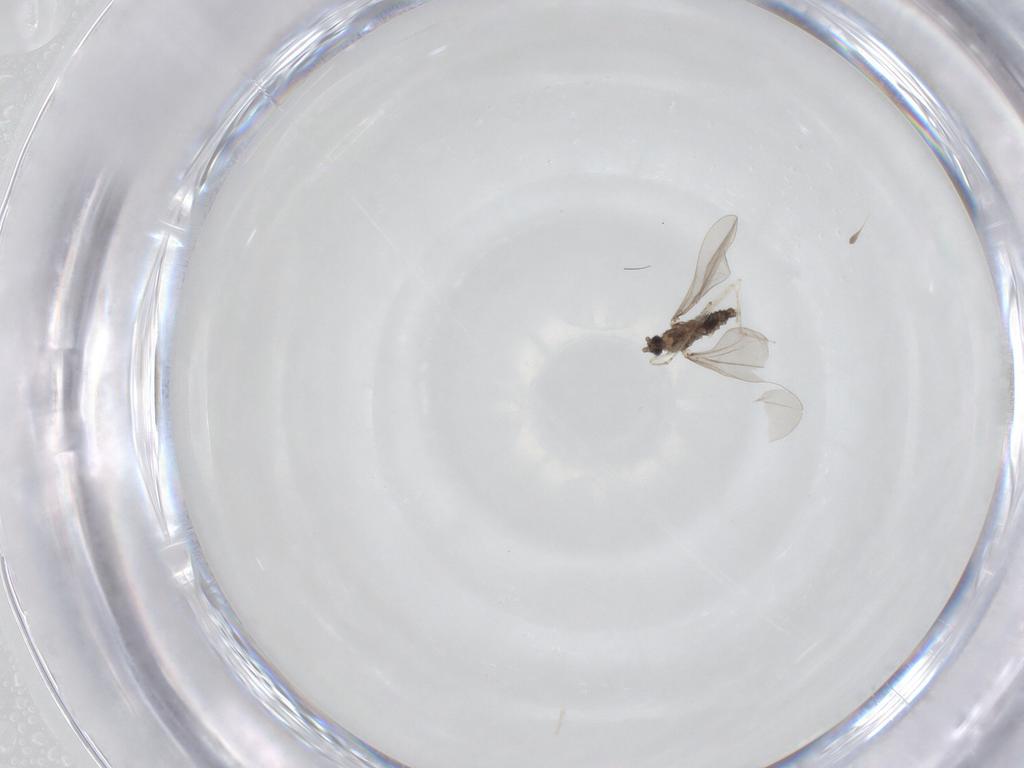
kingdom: Animalia
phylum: Arthropoda
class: Insecta
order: Diptera
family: Cecidomyiidae
